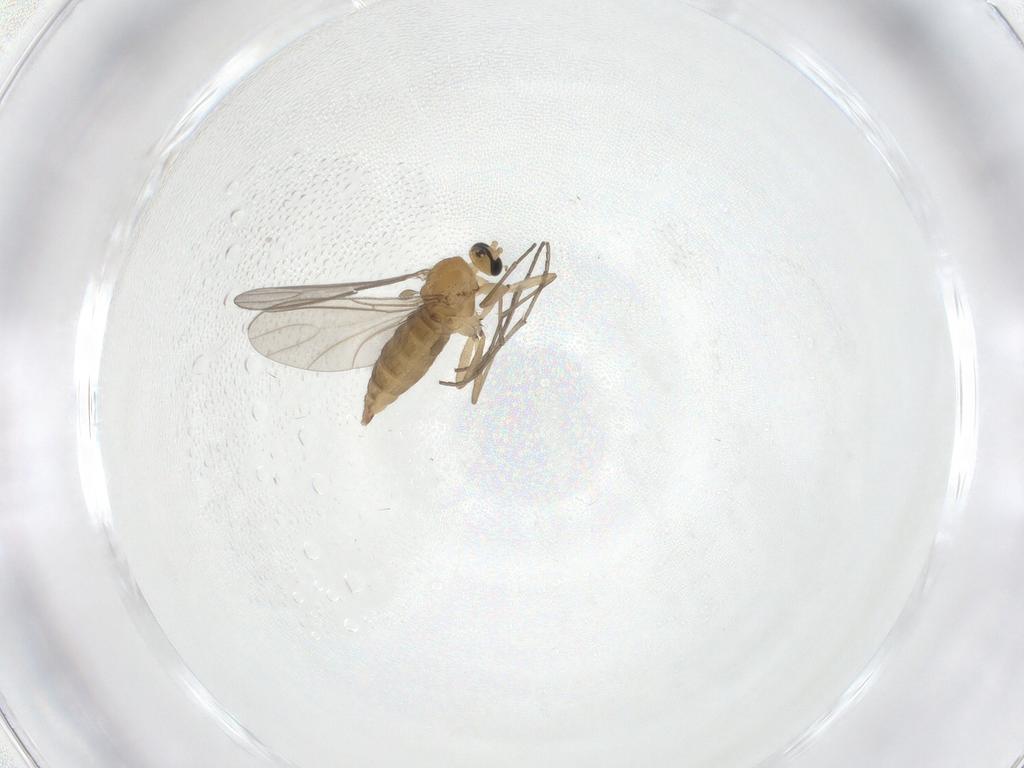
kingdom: Animalia
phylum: Arthropoda
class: Insecta
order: Diptera
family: Sciaridae
